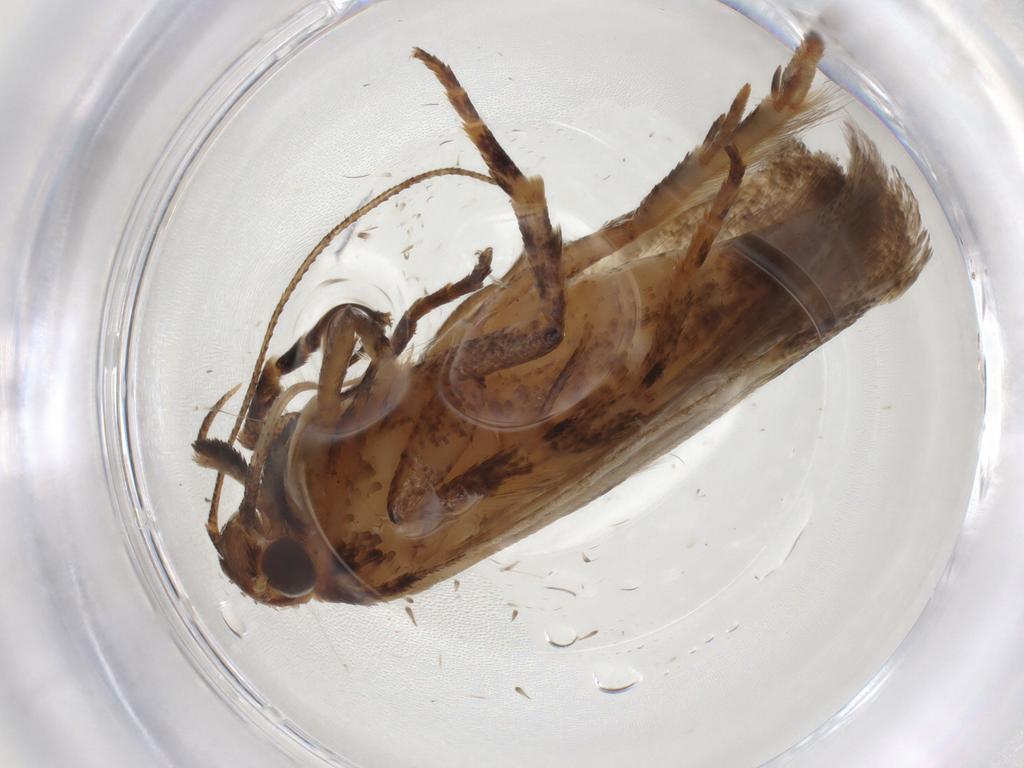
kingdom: Animalia
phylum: Arthropoda
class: Insecta
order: Lepidoptera
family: Gelechiidae
